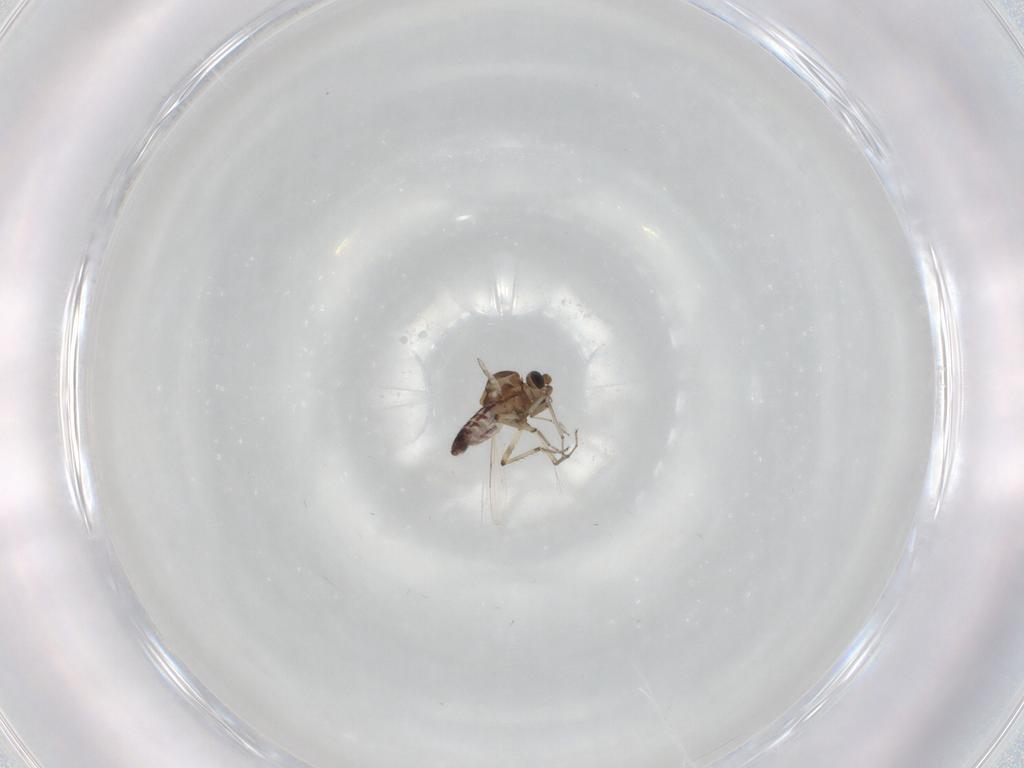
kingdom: Animalia
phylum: Arthropoda
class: Insecta
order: Diptera
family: Ceratopogonidae
